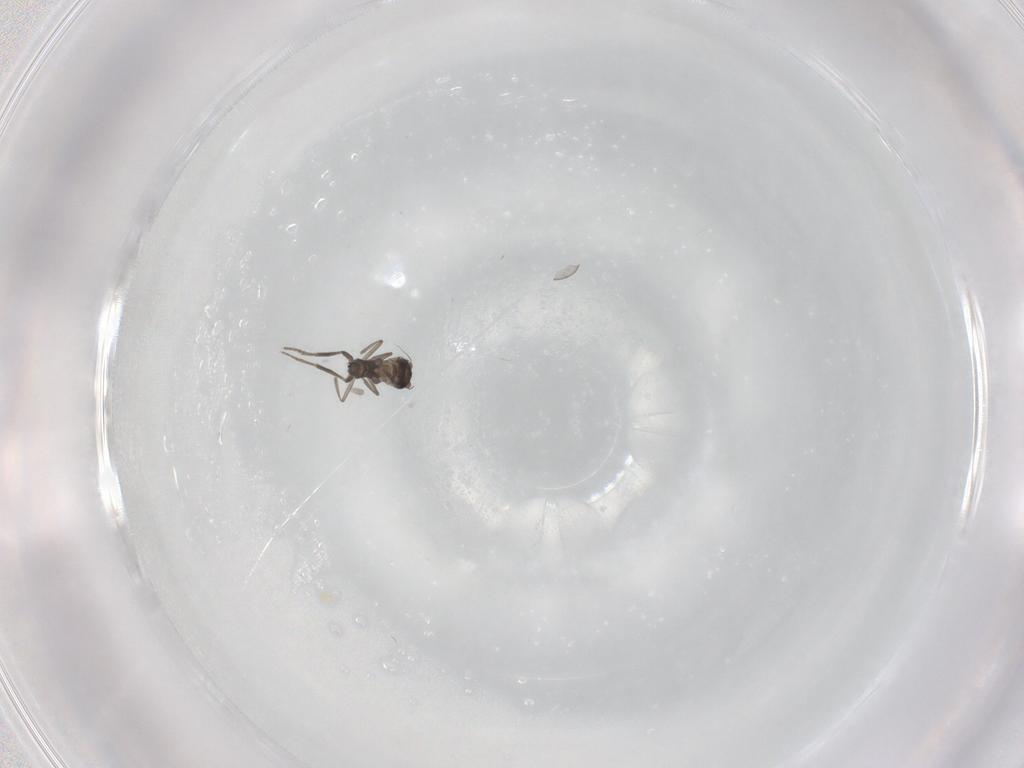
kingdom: Animalia
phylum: Arthropoda
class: Insecta
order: Diptera
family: Phoridae
